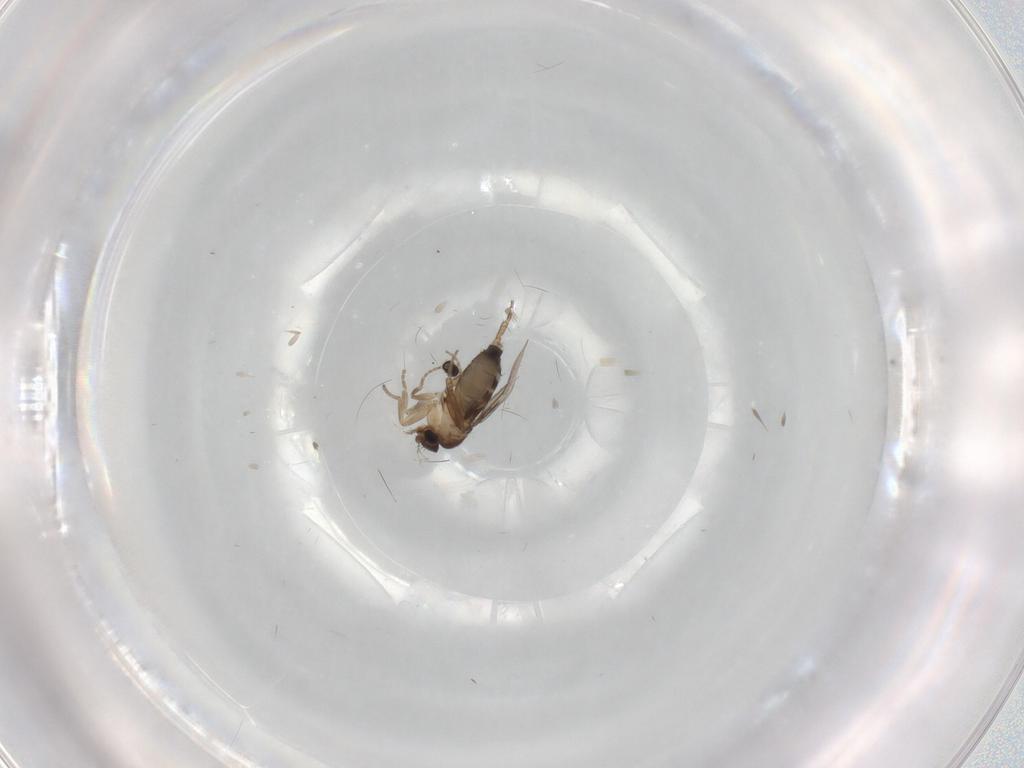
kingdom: Animalia
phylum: Arthropoda
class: Insecta
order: Diptera
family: Phoridae
